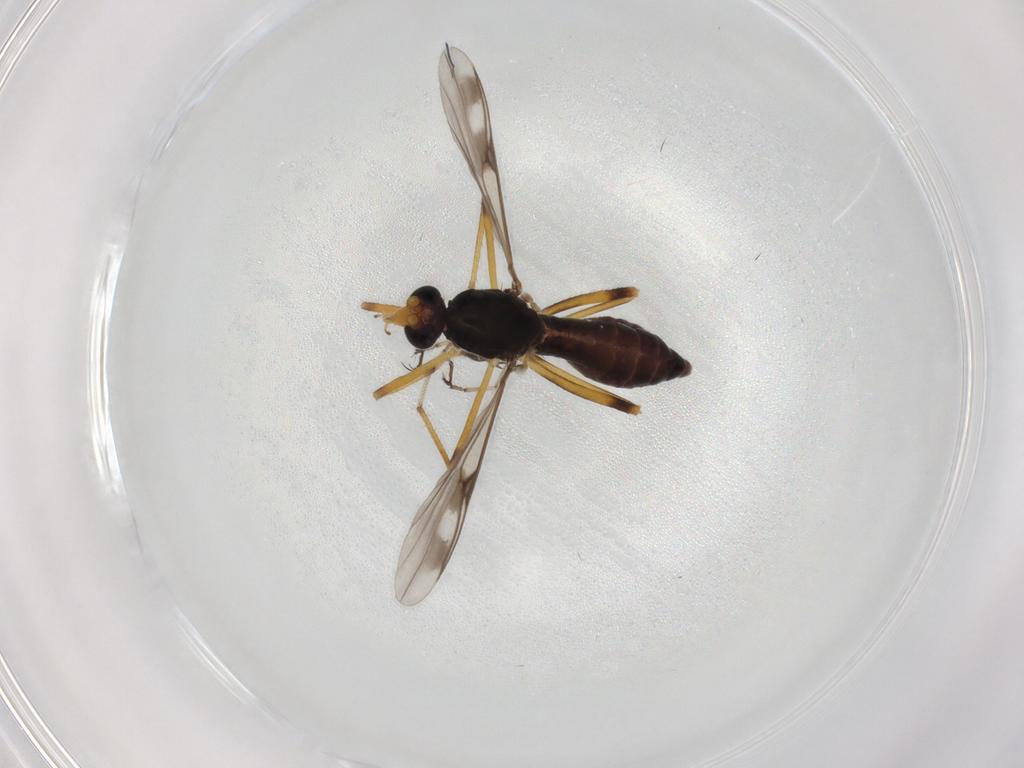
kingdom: Animalia
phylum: Arthropoda
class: Insecta
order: Diptera
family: Ceratopogonidae
